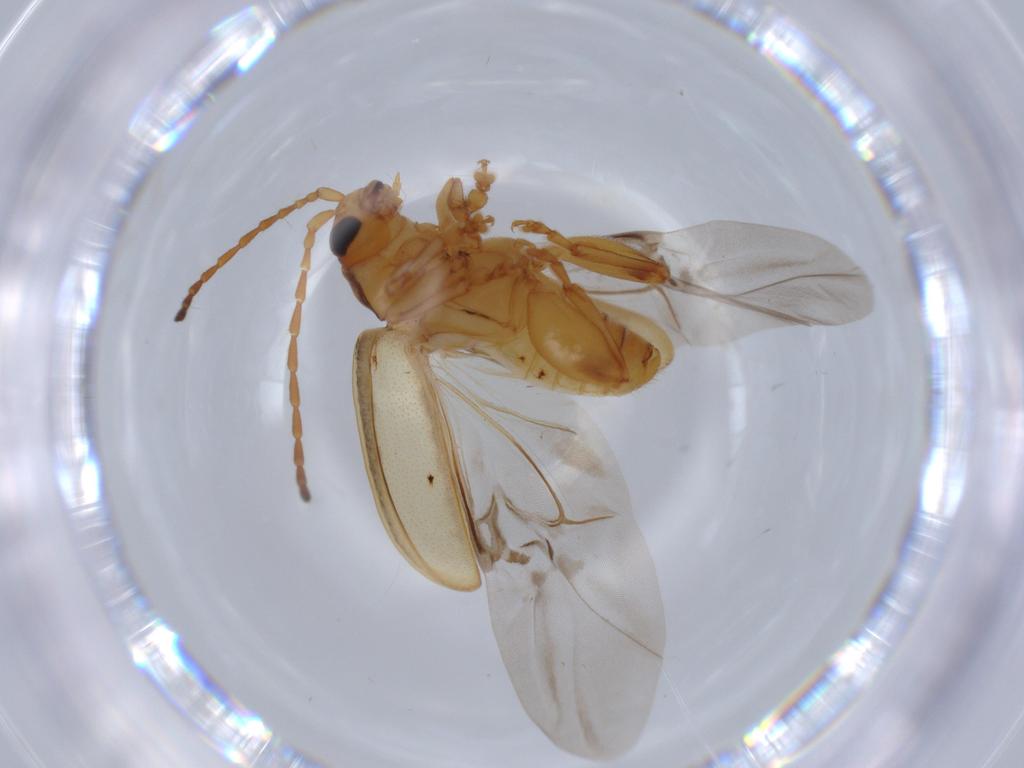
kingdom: Animalia
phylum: Arthropoda
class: Insecta
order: Coleoptera
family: Chrysomelidae
